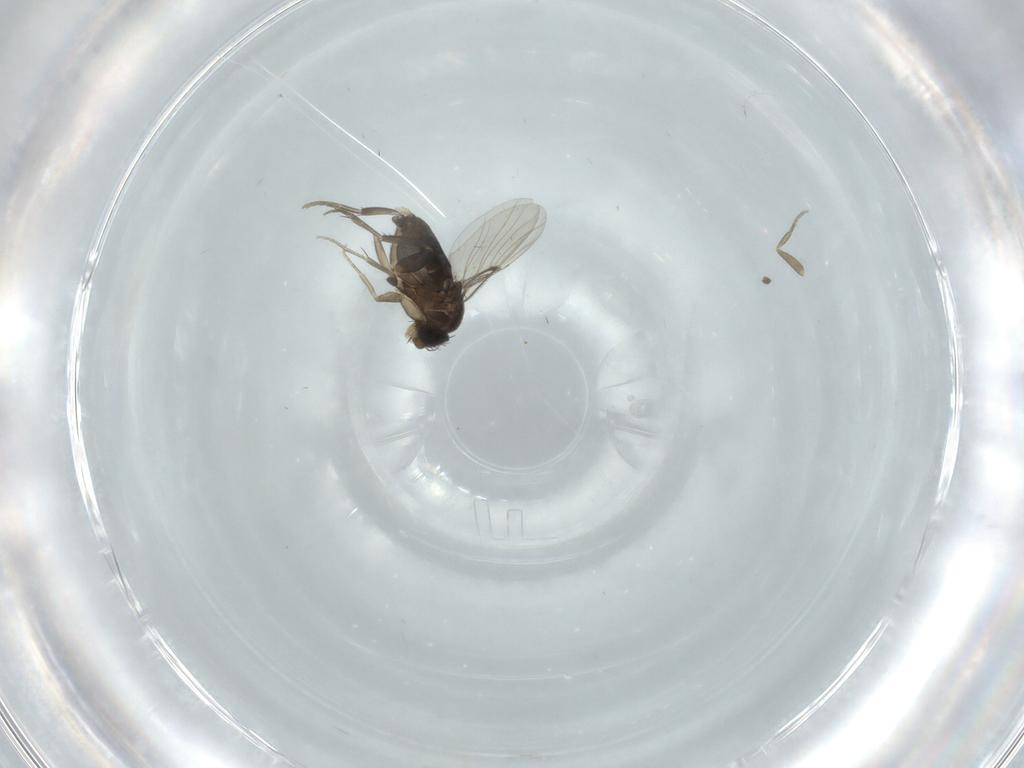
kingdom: Animalia
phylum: Arthropoda
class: Insecta
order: Diptera
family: Phoridae
